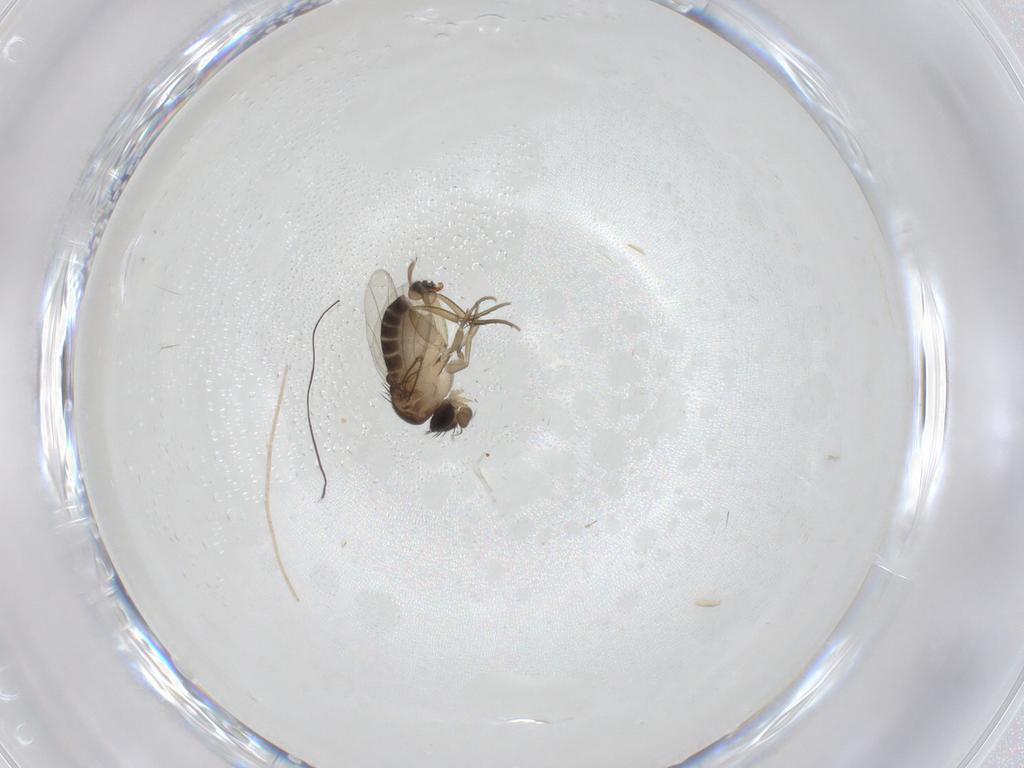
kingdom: Animalia
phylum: Arthropoda
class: Insecta
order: Diptera
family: Chironomidae
